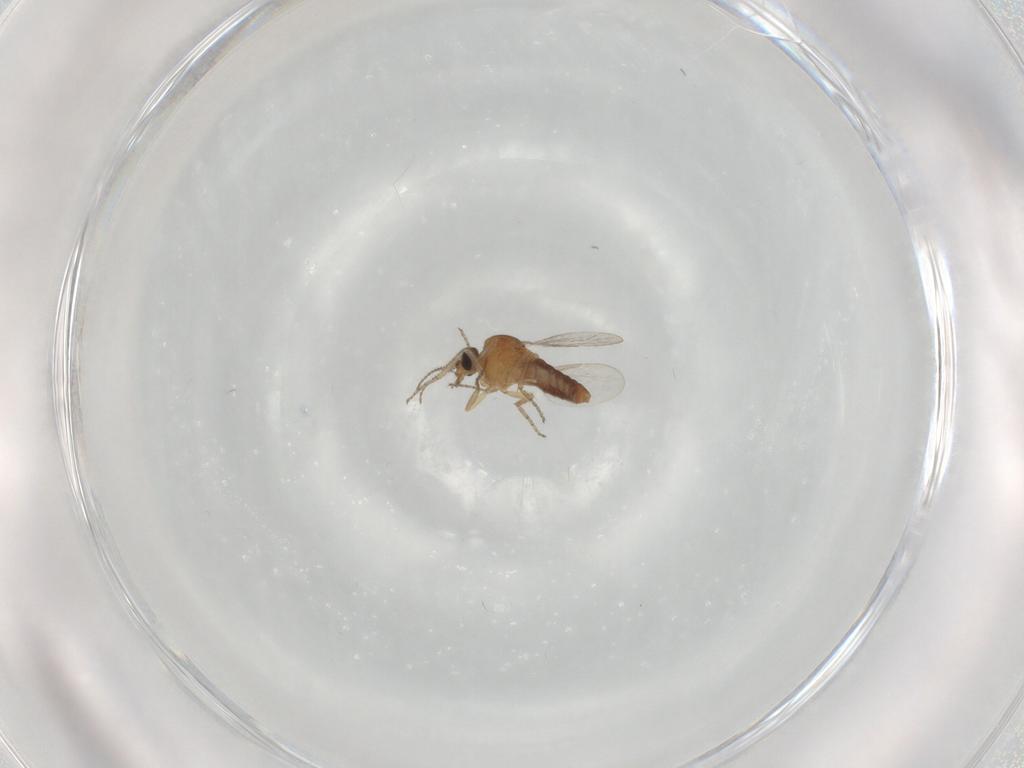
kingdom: Animalia
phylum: Arthropoda
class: Insecta
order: Diptera
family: Ceratopogonidae
